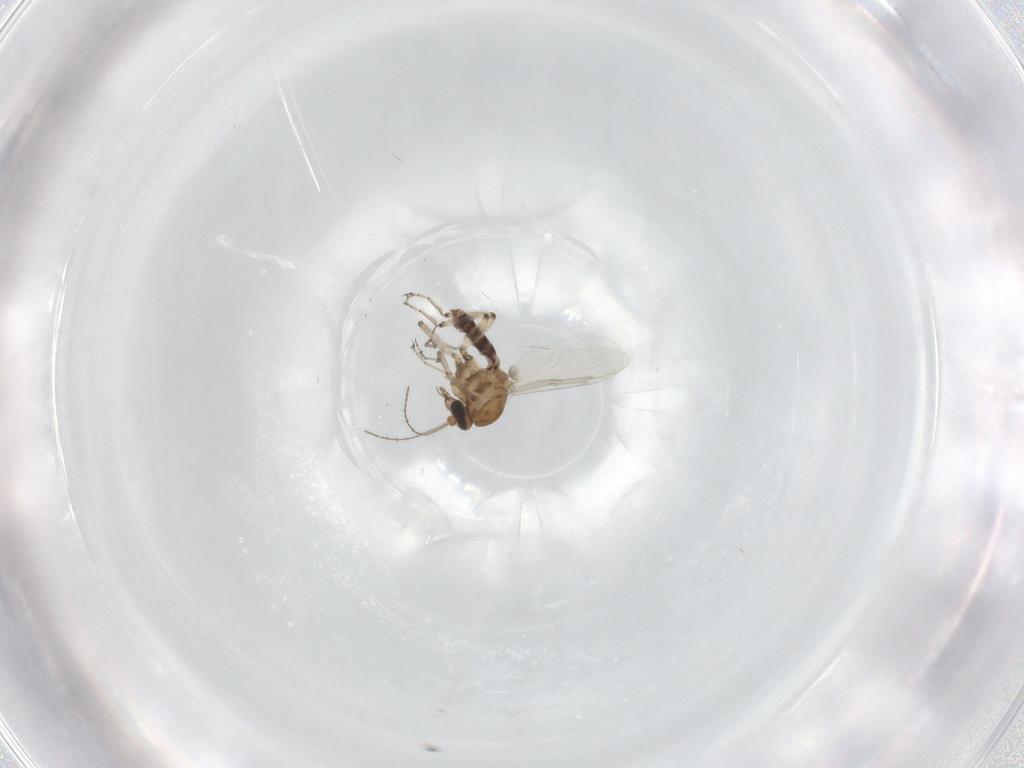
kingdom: Animalia
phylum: Arthropoda
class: Insecta
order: Diptera
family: Ceratopogonidae
